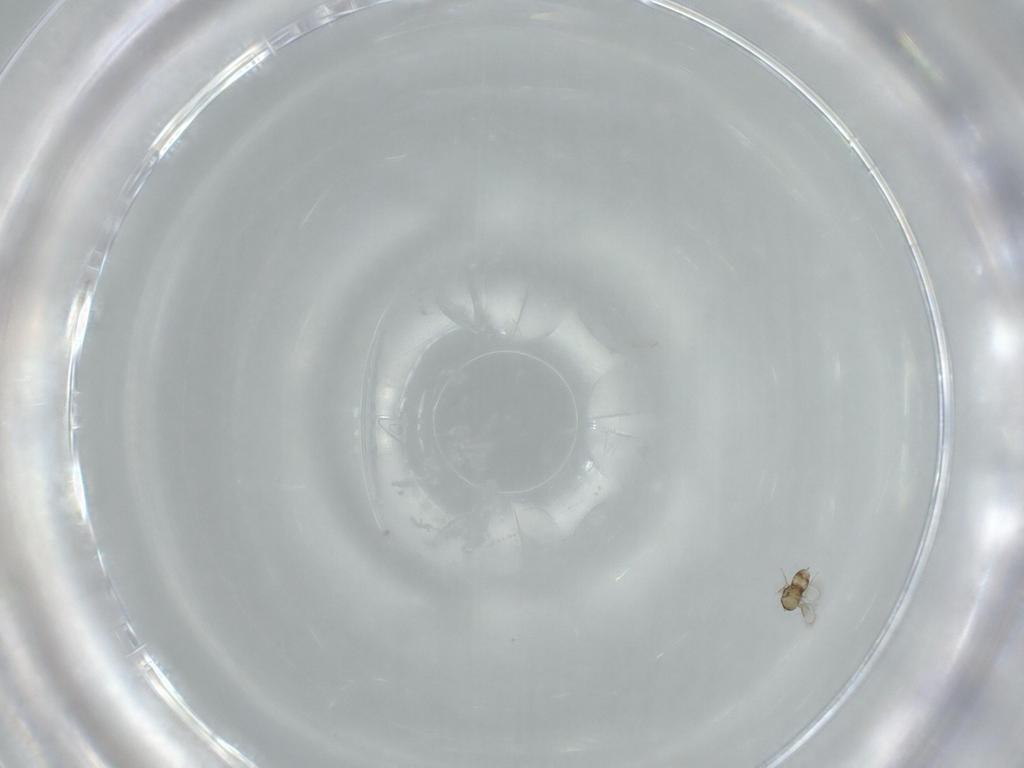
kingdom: Animalia
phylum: Arthropoda
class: Insecta
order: Hymenoptera
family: Aphelinidae
